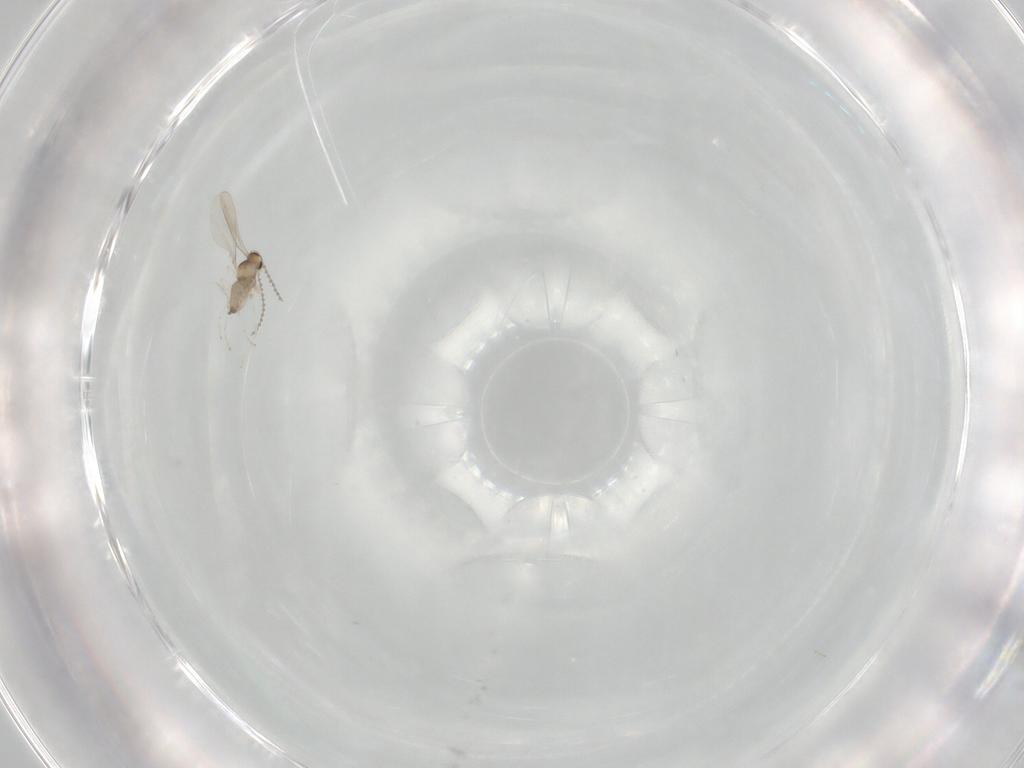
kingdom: Animalia
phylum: Arthropoda
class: Insecta
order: Diptera
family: Cecidomyiidae
